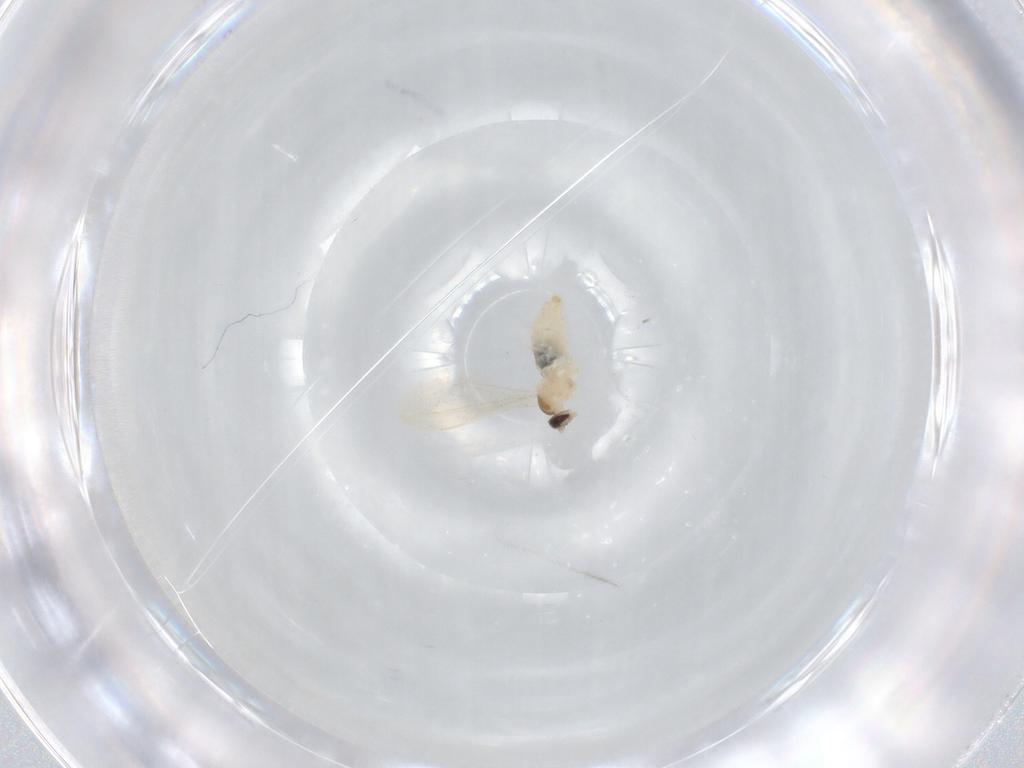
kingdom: Animalia
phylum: Arthropoda
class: Insecta
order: Diptera
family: Cecidomyiidae
